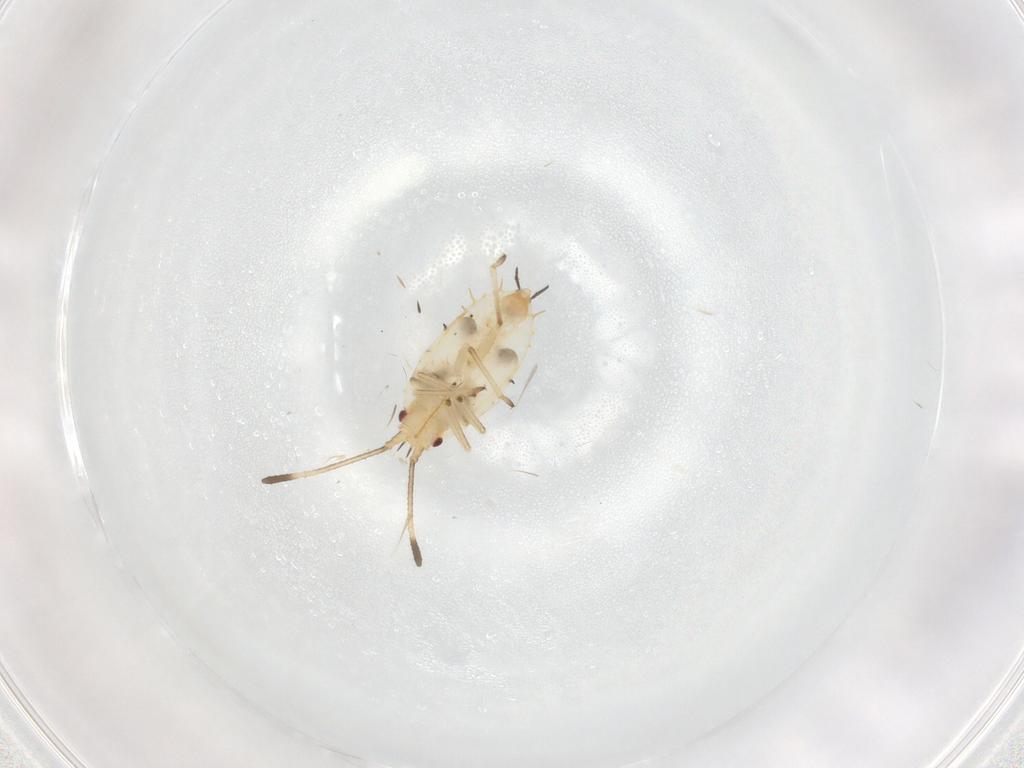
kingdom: Animalia
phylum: Arthropoda
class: Insecta
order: Hemiptera
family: Tingidae
